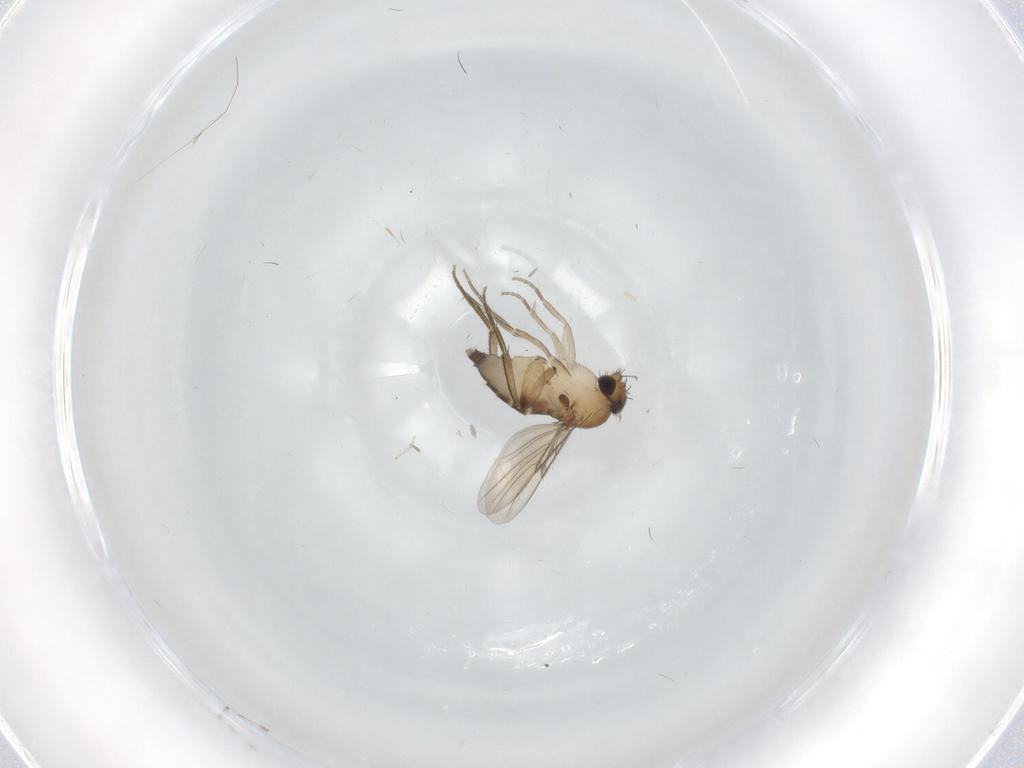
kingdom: Animalia
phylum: Arthropoda
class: Insecta
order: Diptera
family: Phoridae
